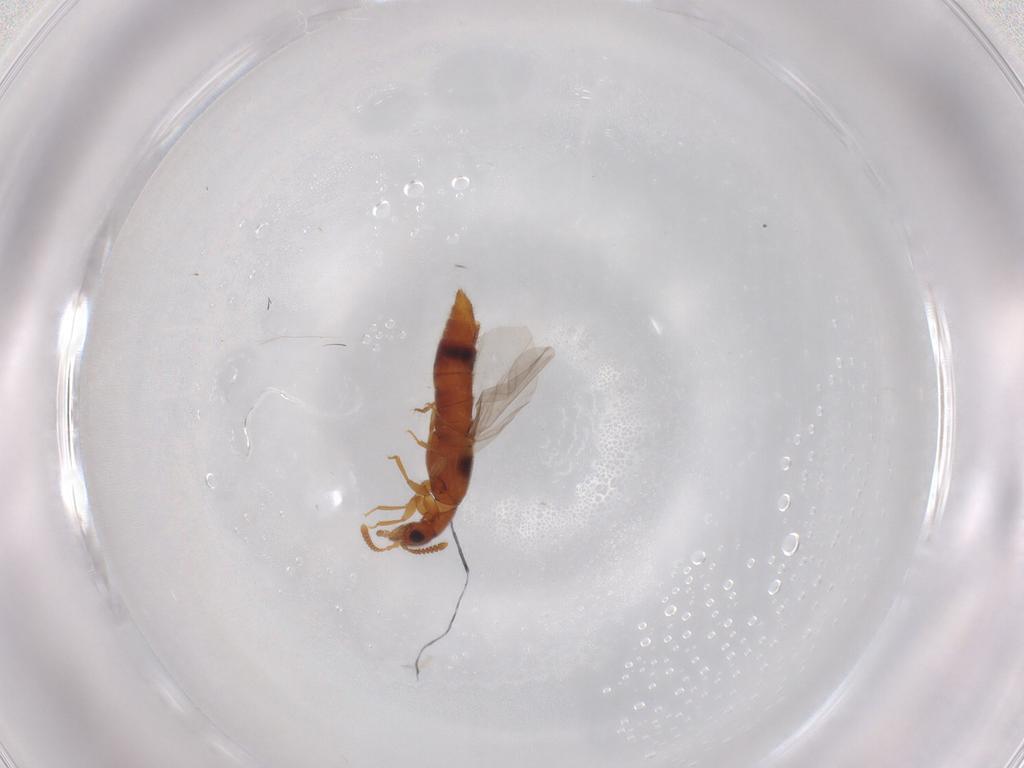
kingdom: Animalia
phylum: Arthropoda
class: Insecta
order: Coleoptera
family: Staphylinidae
